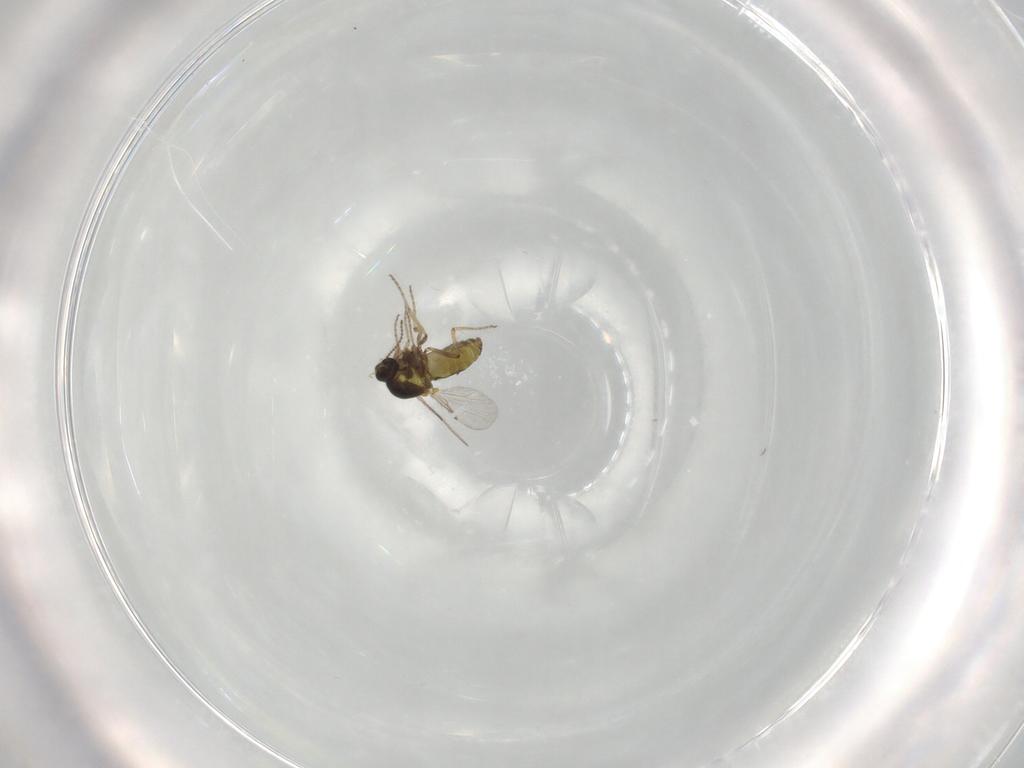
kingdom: Animalia
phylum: Arthropoda
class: Insecta
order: Diptera
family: Ceratopogonidae
